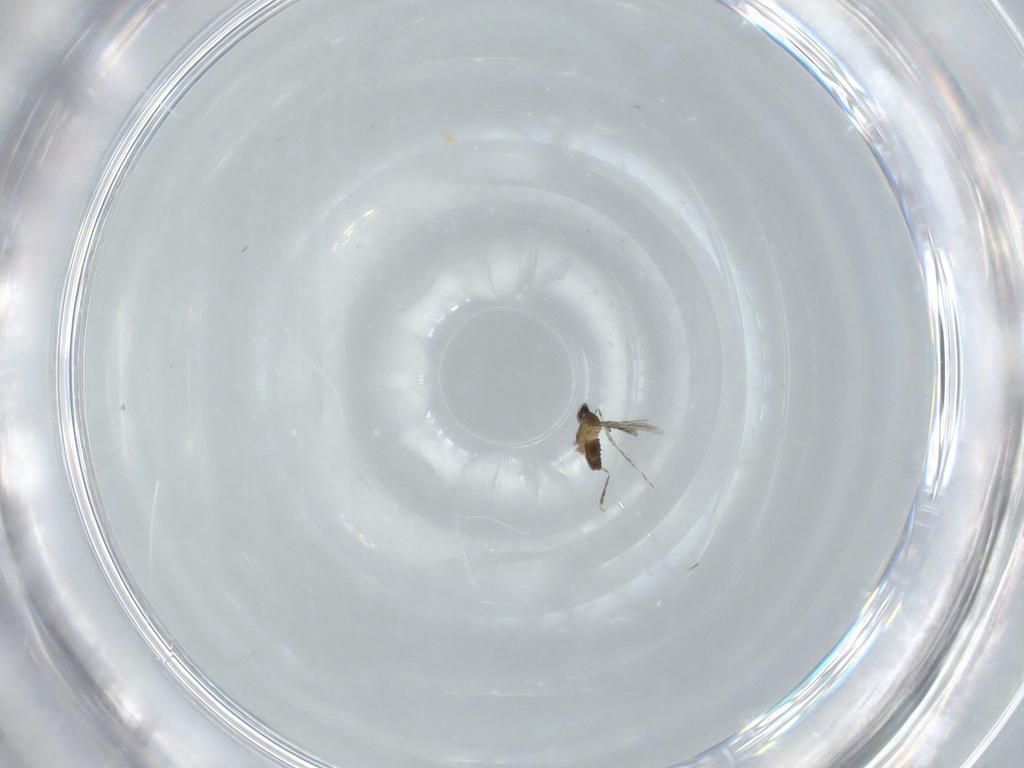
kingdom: Animalia
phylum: Arthropoda
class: Insecta
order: Diptera
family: Cecidomyiidae
